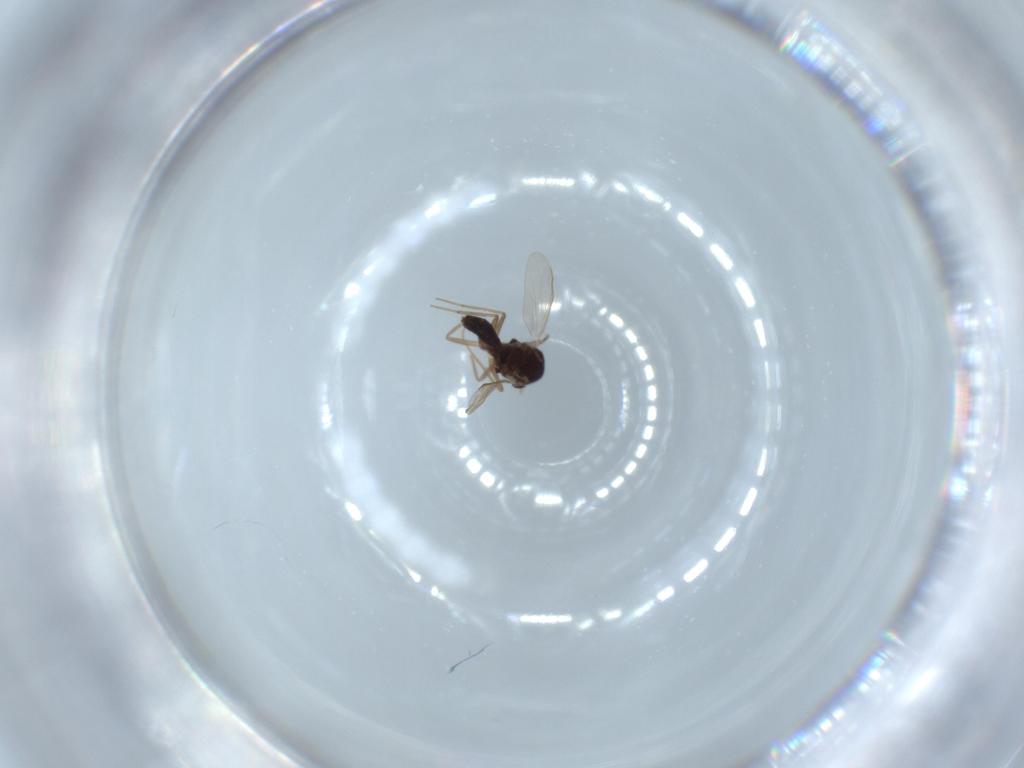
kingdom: Animalia
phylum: Arthropoda
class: Insecta
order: Diptera
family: Chironomidae
